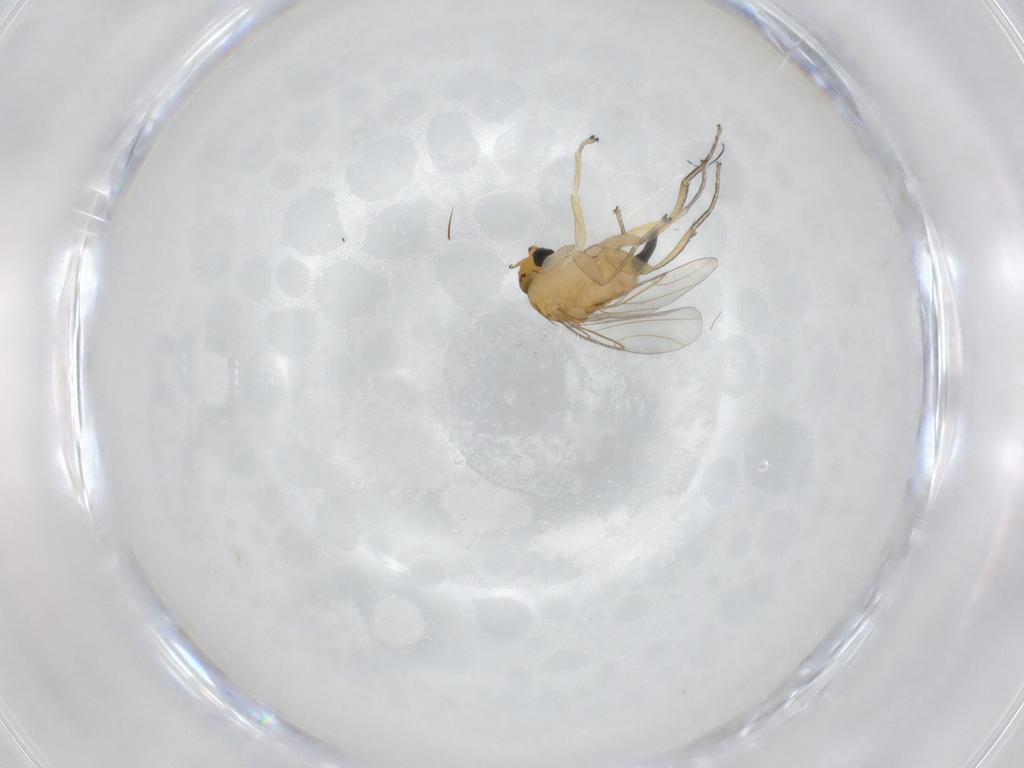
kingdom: Animalia
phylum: Arthropoda
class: Insecta
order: Diptera
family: Phoridae
